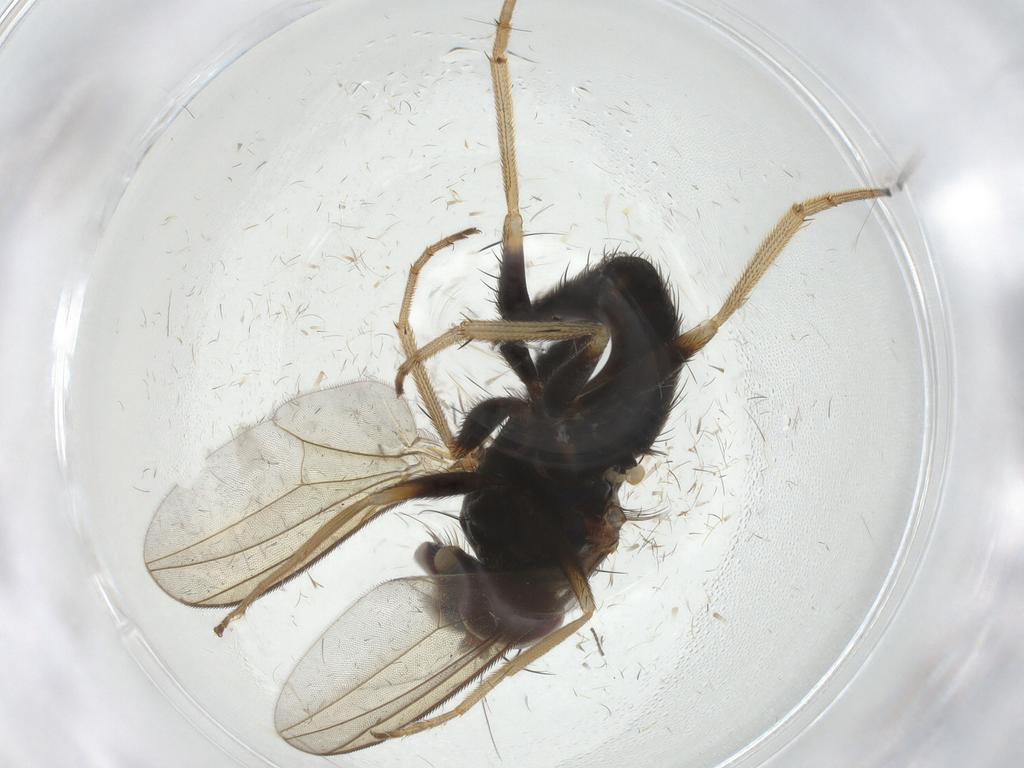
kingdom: Animalia
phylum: Arthropoda
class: Insecta
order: Diptera
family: Dolichopodidae
